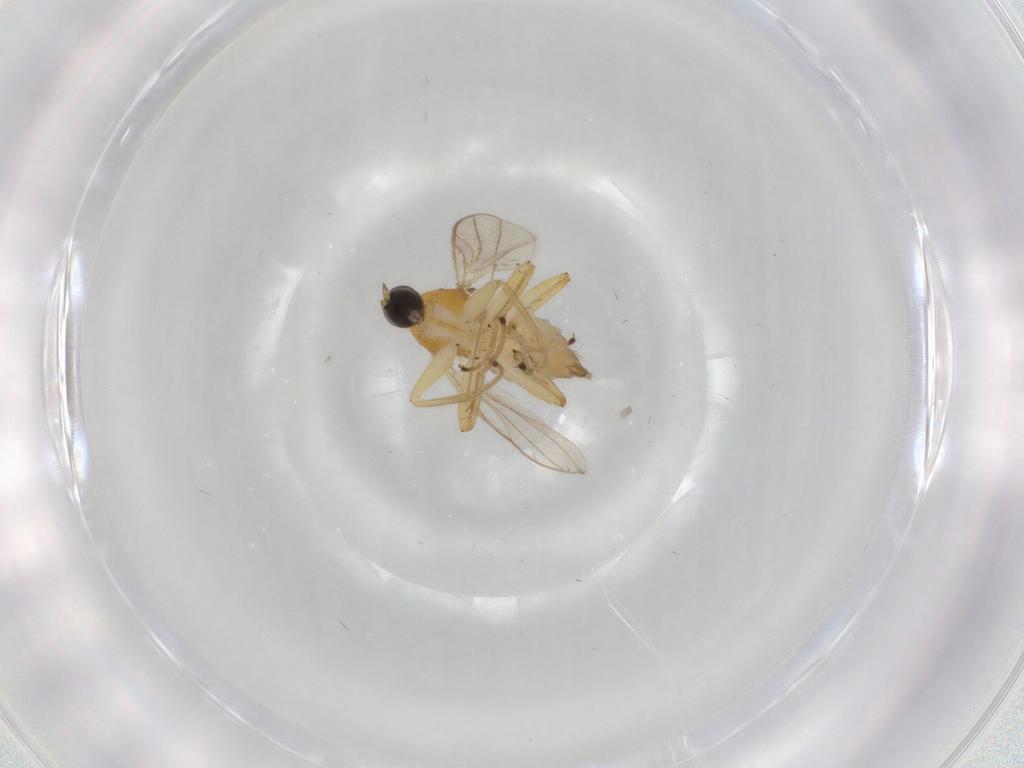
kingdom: Animalia
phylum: Arthropoda
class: Insecta
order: Diptera
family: Hybotidae
